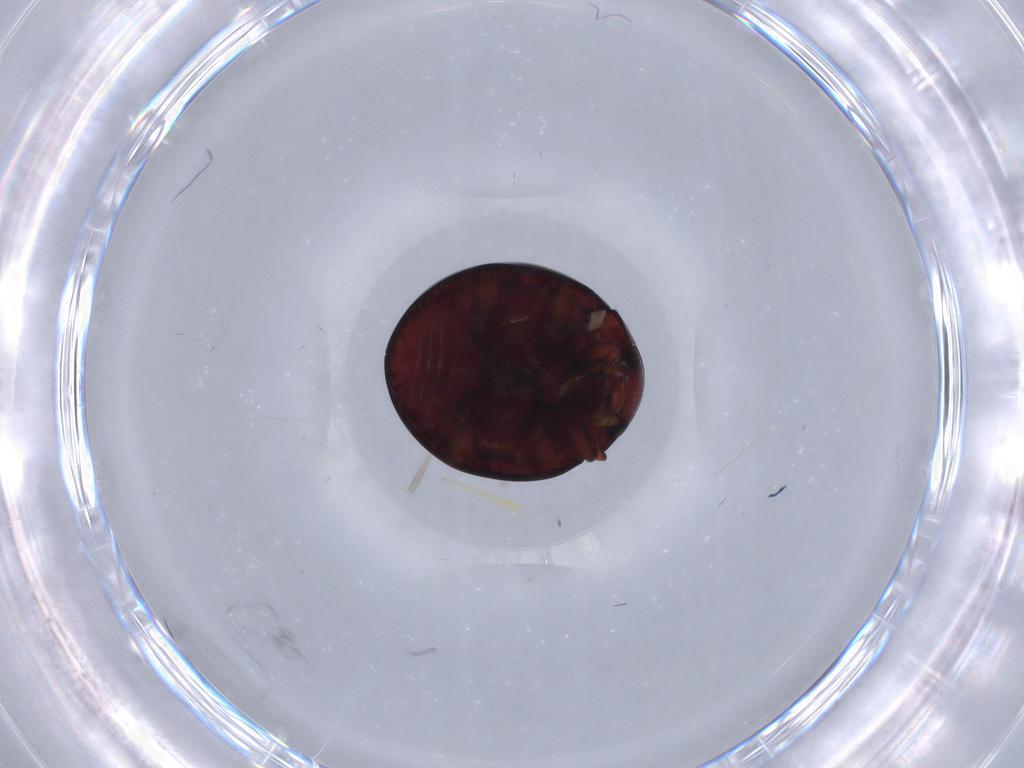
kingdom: Animalia
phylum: Arthropoda
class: Insecta
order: Coleoptera
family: Coccinellidae
